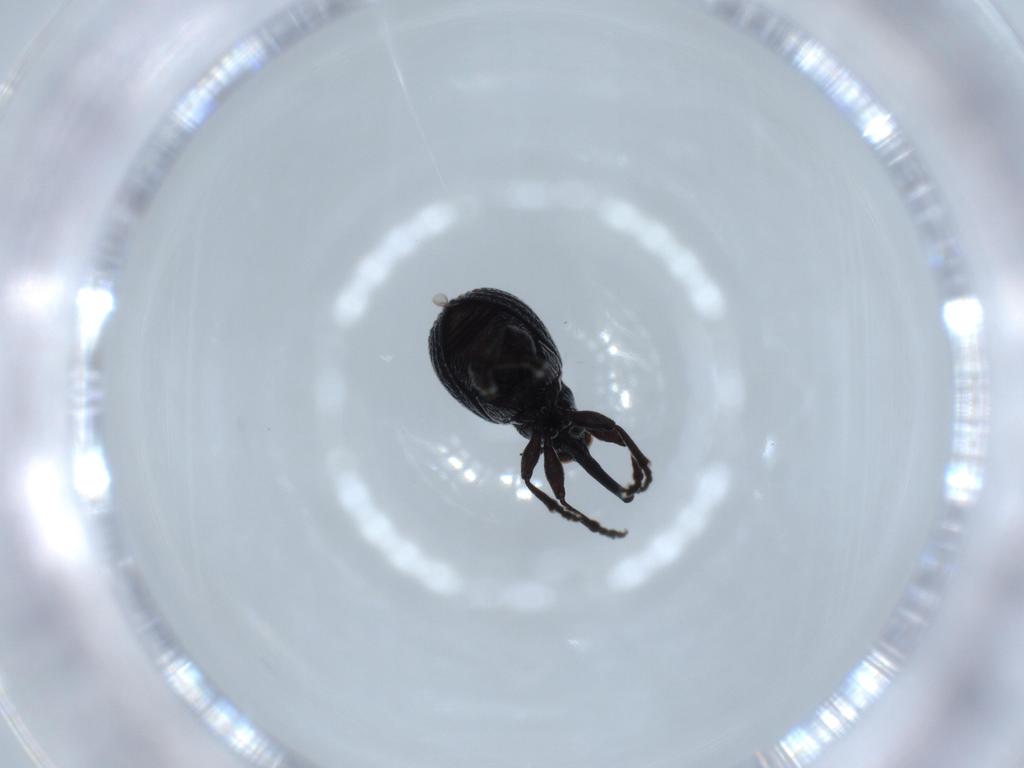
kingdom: Animalia
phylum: Arthropoda
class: Insecta
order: Coleoptera
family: Brentidae
